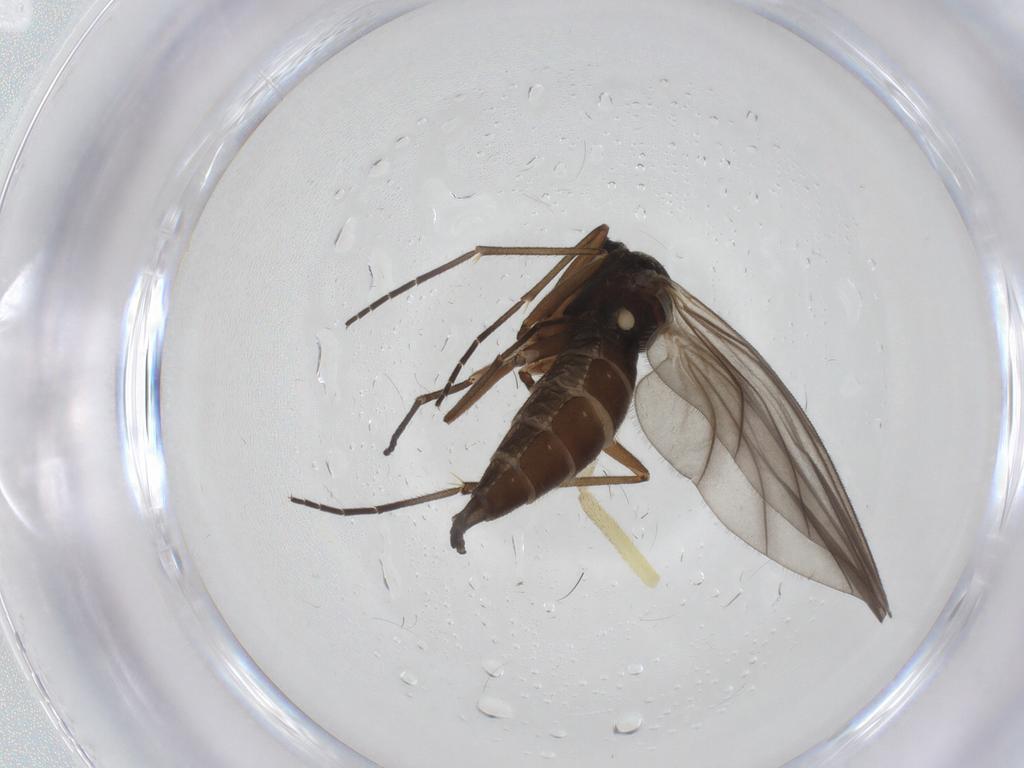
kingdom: Animalia
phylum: Arthropoda
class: Insecta
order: Diptera
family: Sciaridae
